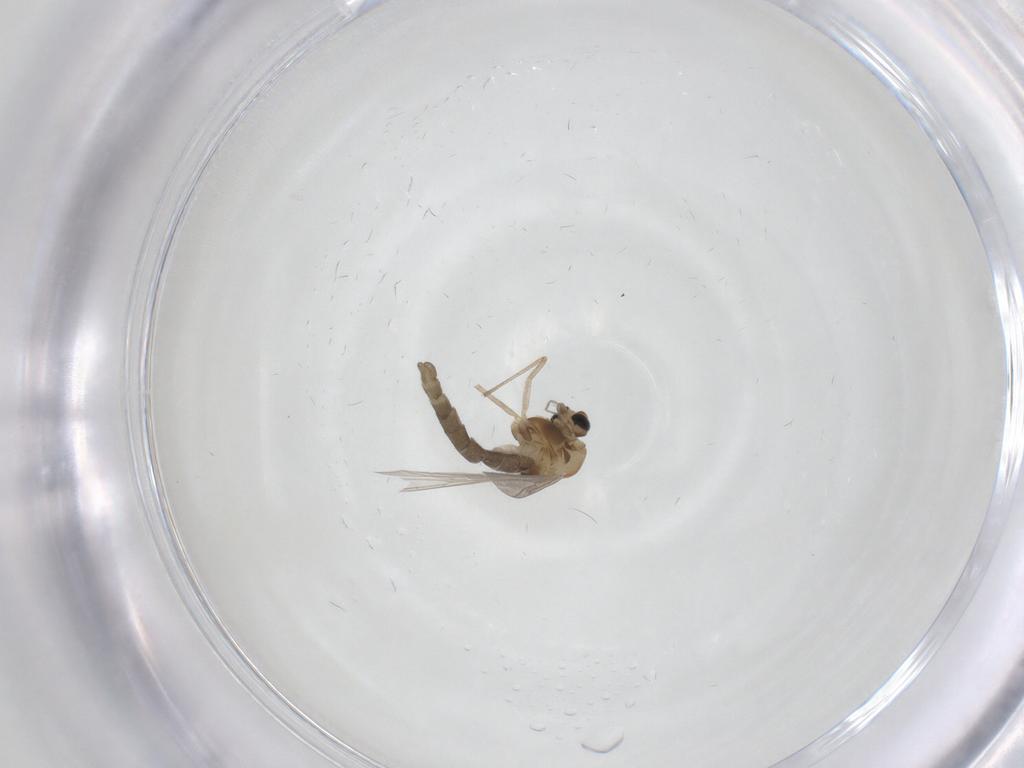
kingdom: Animalia
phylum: Arthropoda
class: Insecta
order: Diptera
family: Chironomidae
